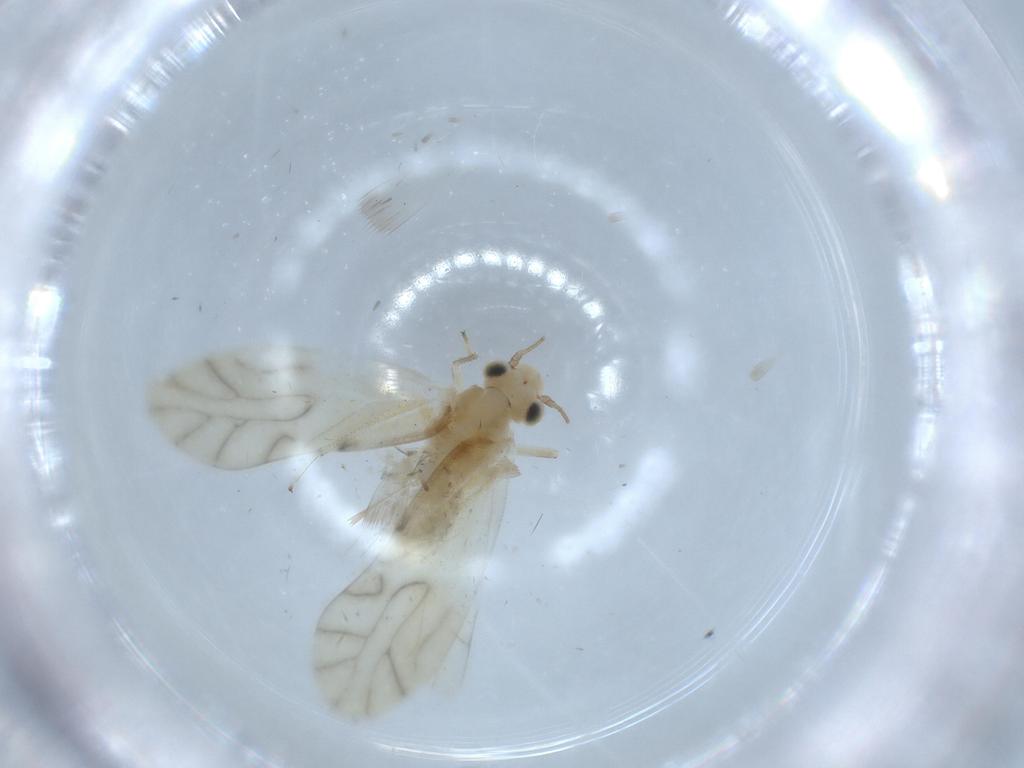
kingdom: Animalia
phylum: Arthropoda
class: Insecta
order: Psocodea
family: Caeciliusidae
